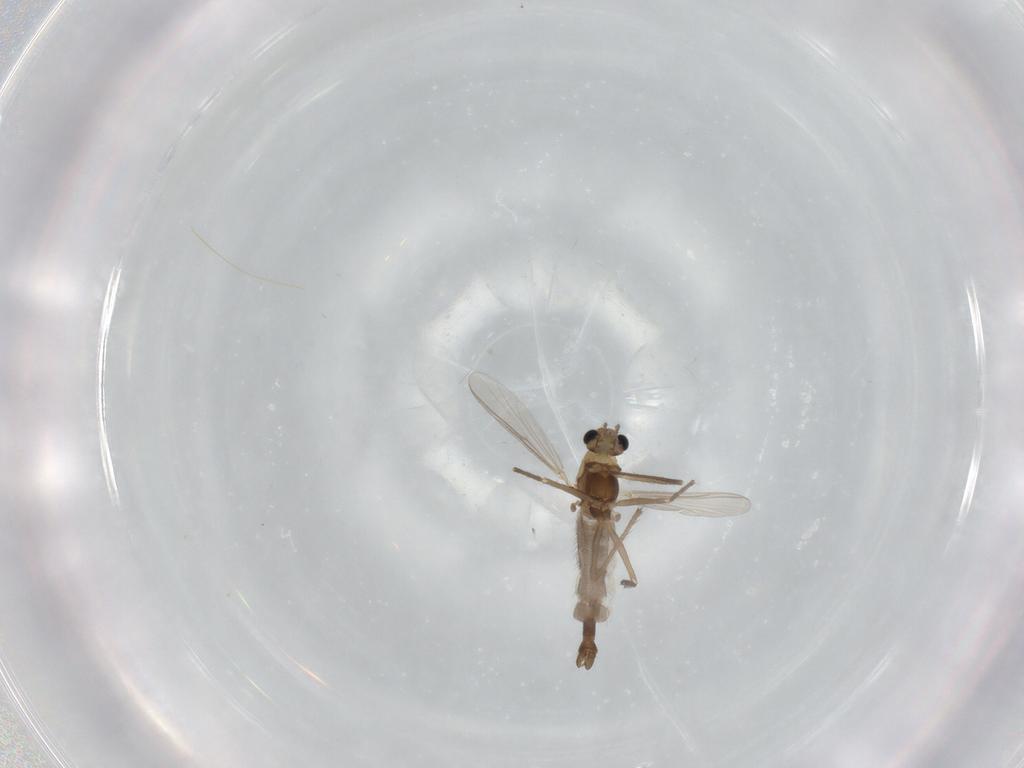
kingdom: Animalia
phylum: Arthropoda
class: Insecta
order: Diptera
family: Chironomidae
